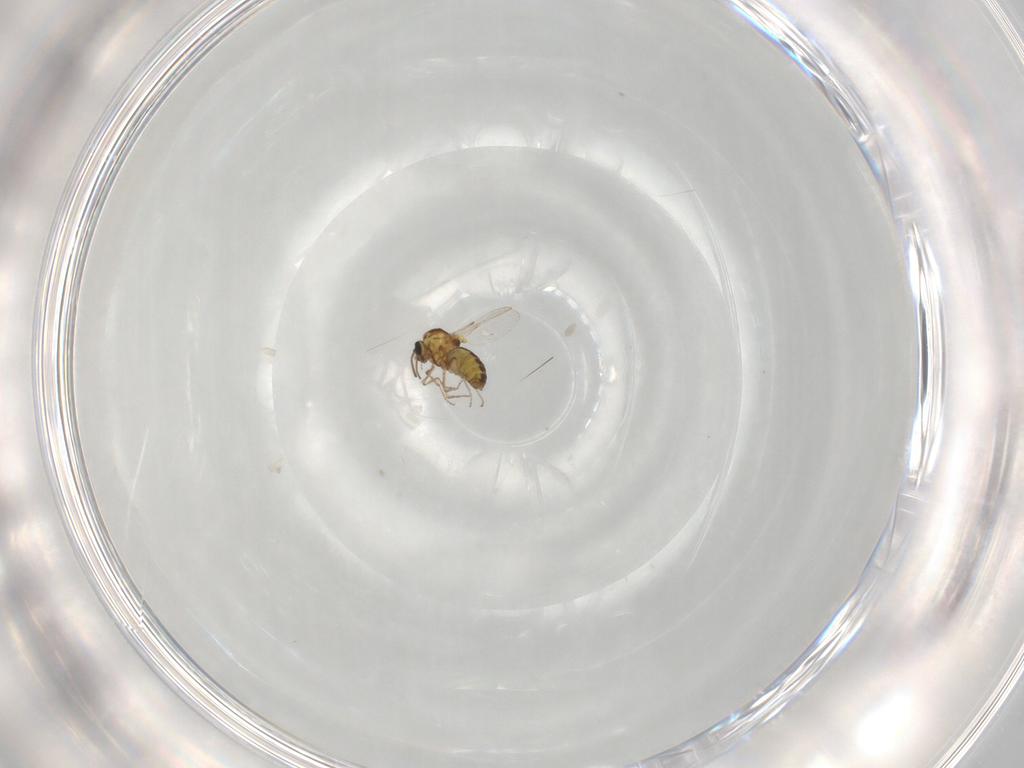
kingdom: Animalia
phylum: Arthropoda
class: Insecta
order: Diptera
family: Ceratopogonidae
